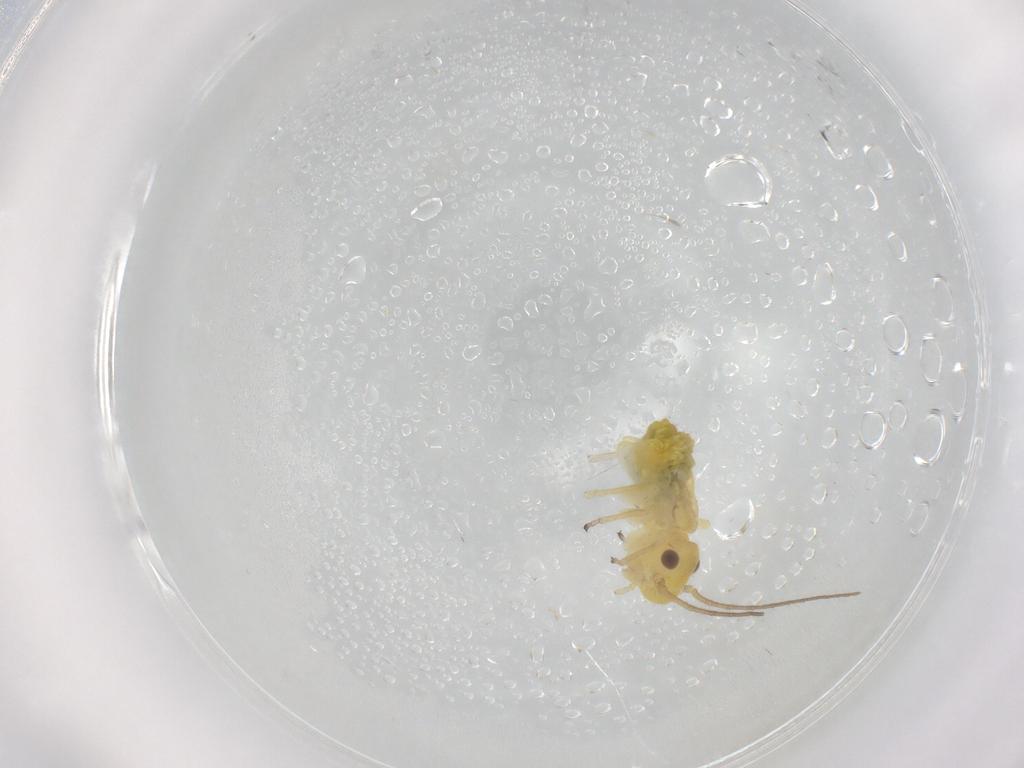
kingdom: Animalia
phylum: Arthropoda
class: Insecta
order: Psocodea
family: Caeciliusidae
